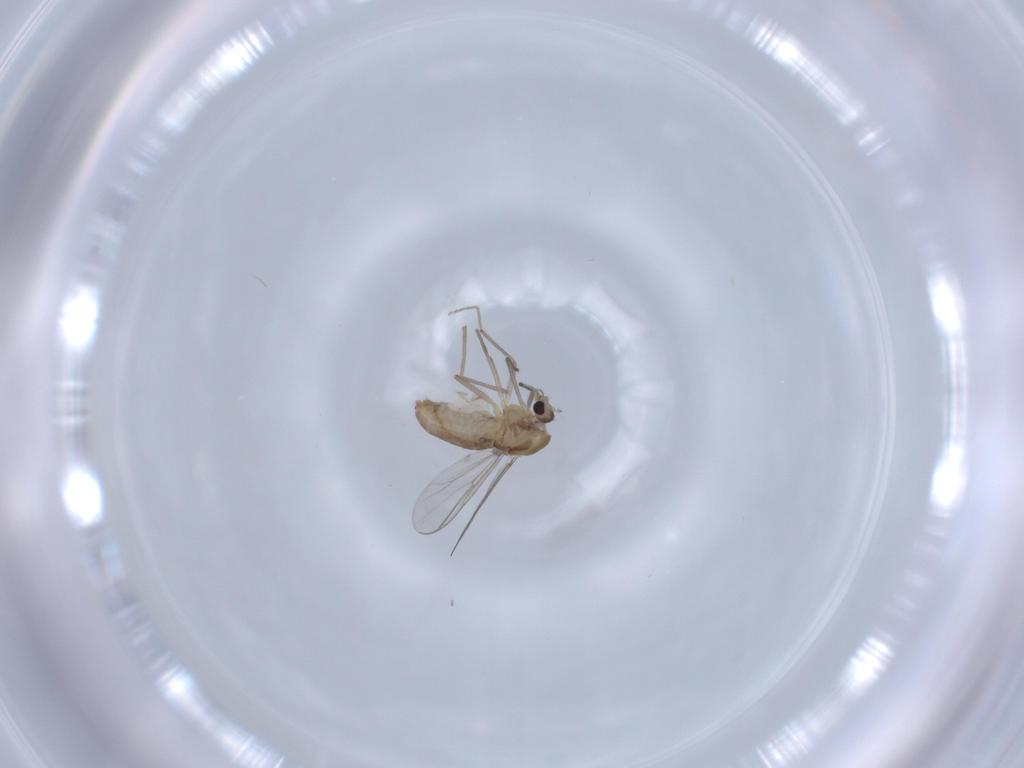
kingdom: Animalia
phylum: Arthropoda
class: Insecta
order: Diptera
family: Chironomidae
